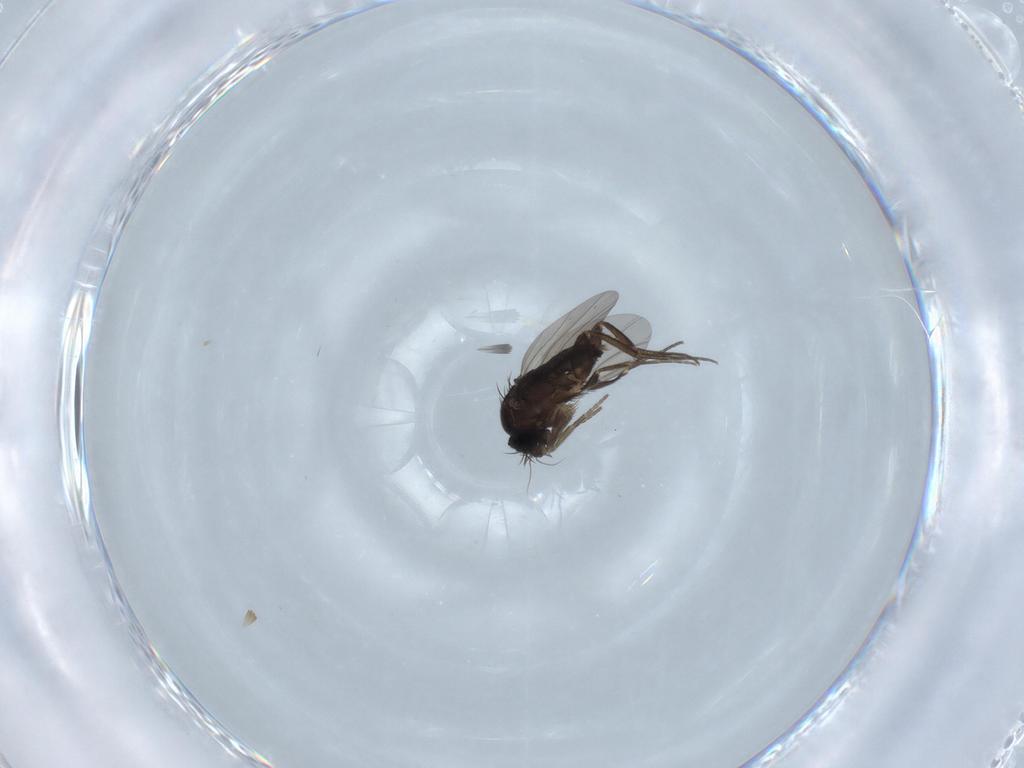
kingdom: Animalia
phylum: Arthropoda
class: Insecta
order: Diptera
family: Phoridae
